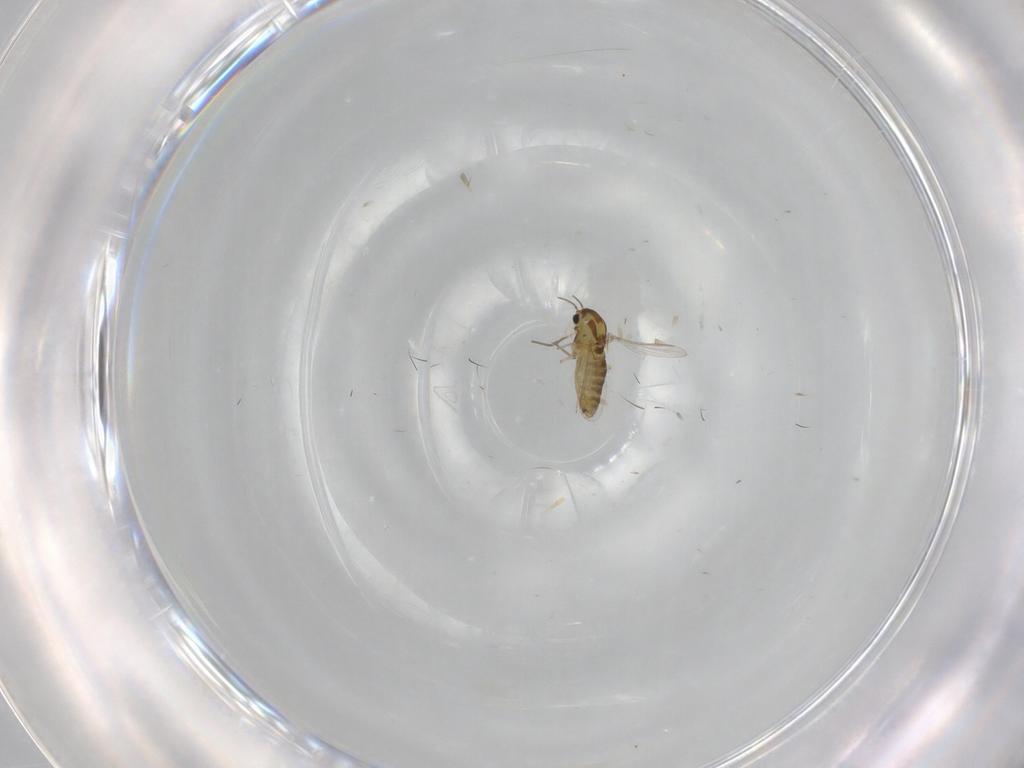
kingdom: Animalia
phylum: Arthropoda
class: Insecta
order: Diptera
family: Chironomidae
